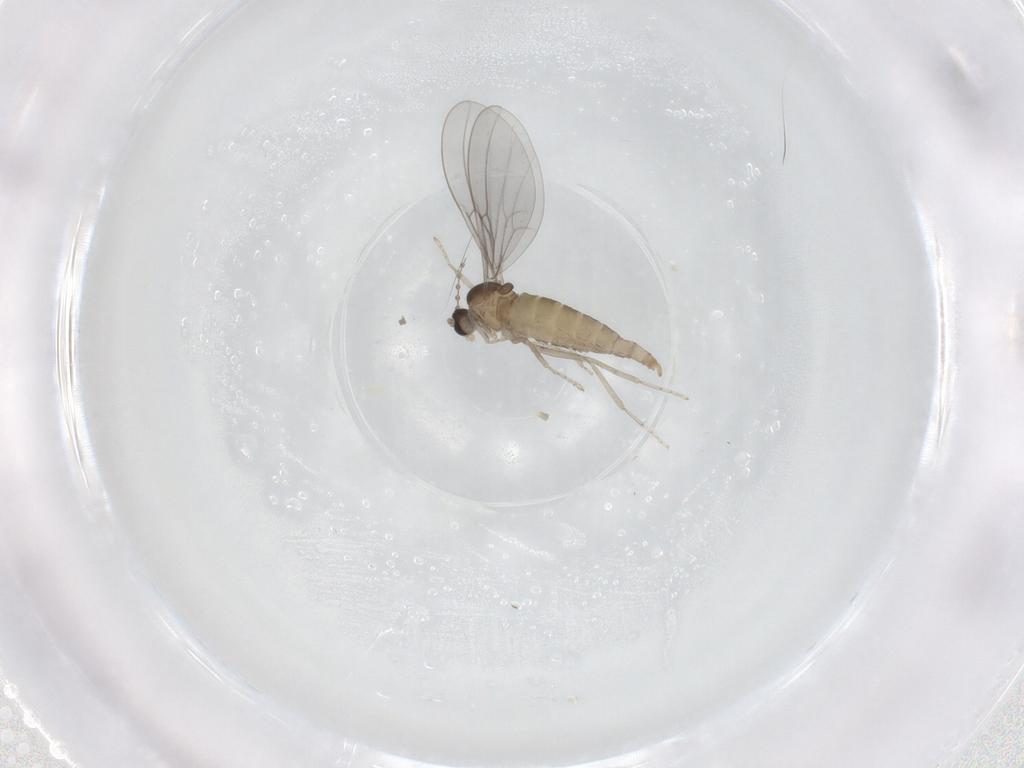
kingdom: Animalia
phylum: Arthropoda
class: Insecta
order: Diptera
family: Cecidomyiidae
